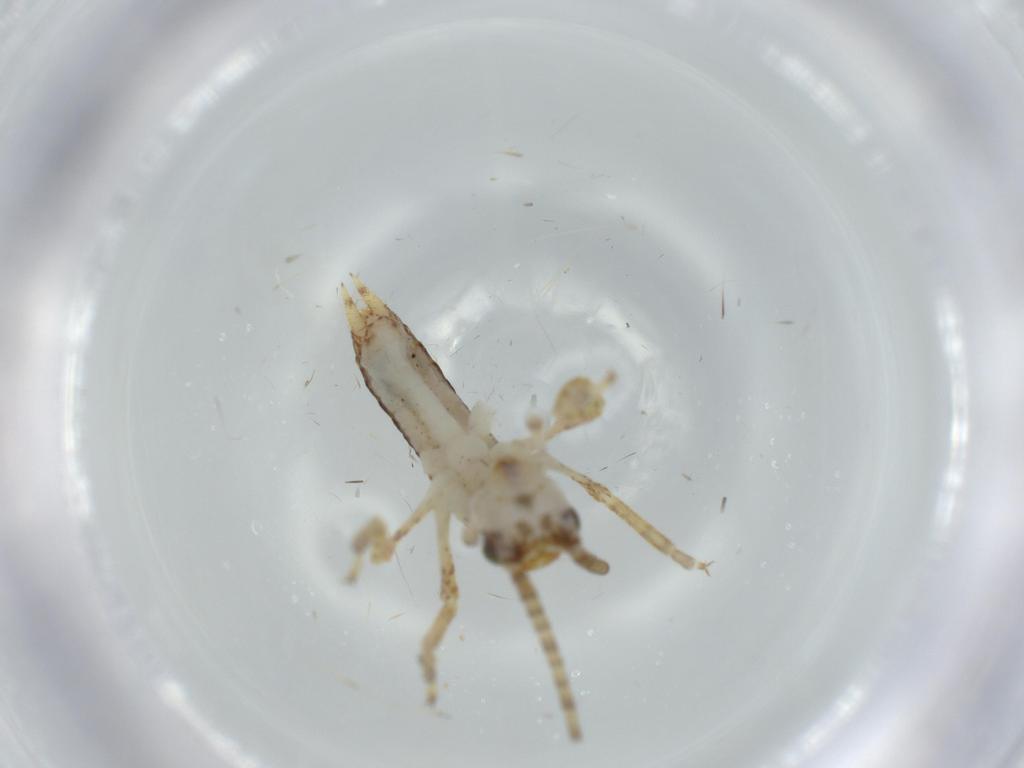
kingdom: Animalia
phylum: Arthropoda
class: Insecta
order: Orthoptera
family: Gryllidae
